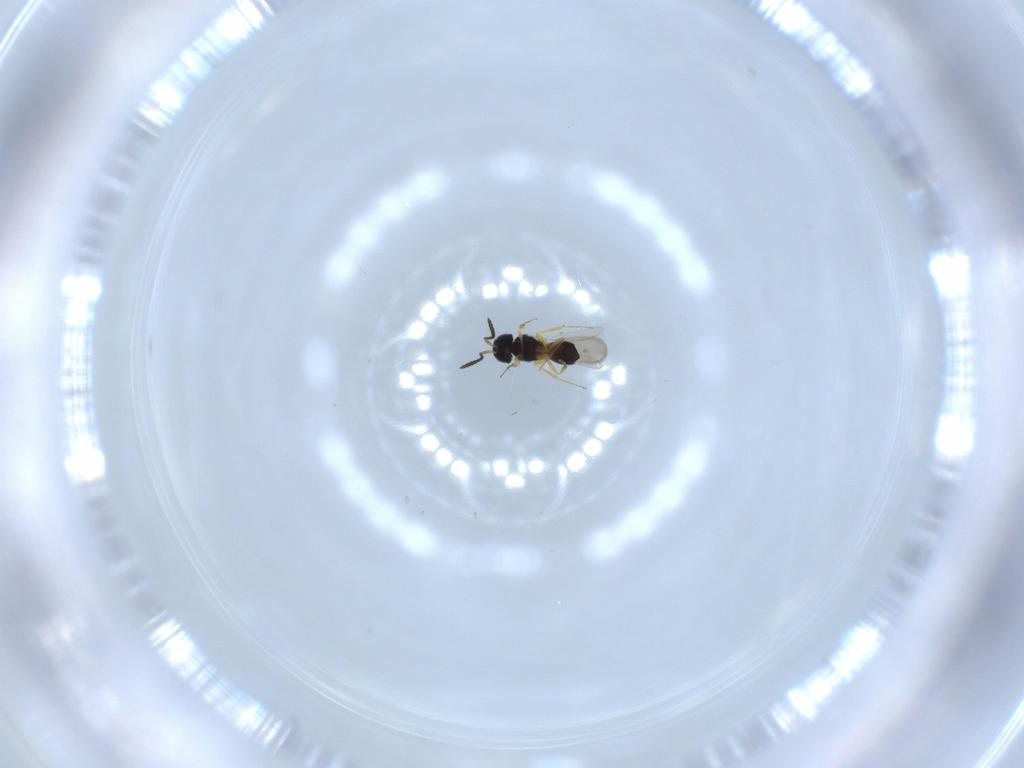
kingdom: Animalia
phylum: Arthropoda
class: Insecta
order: Hymenoptera
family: Scelionidae
